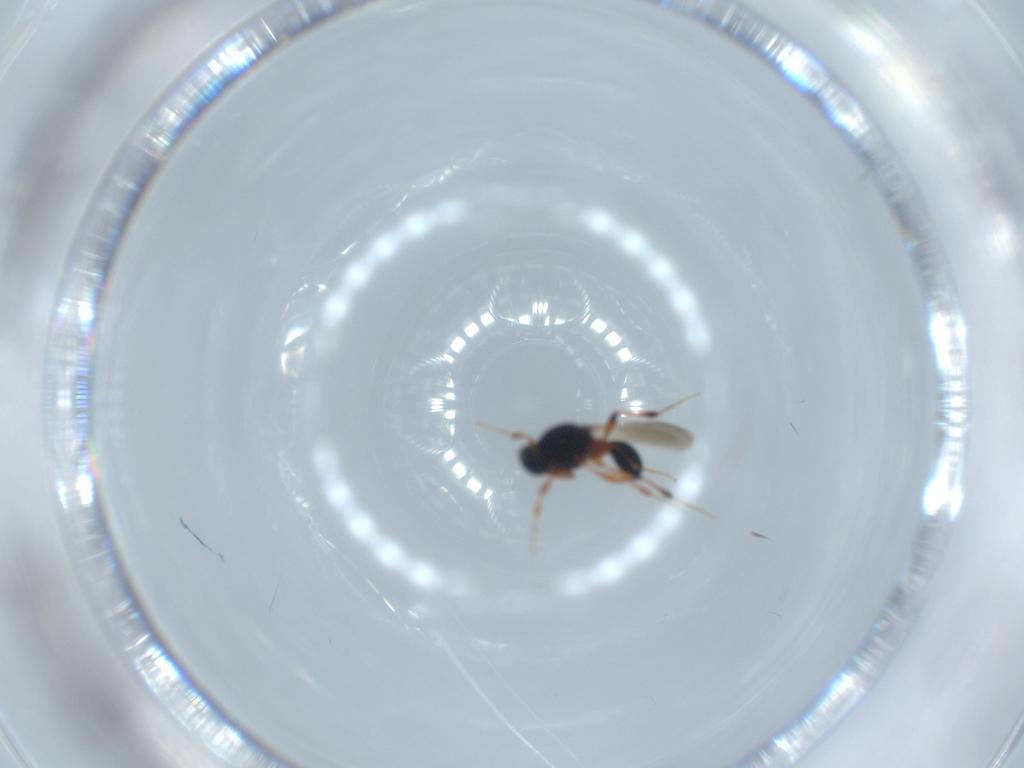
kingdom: Animalia
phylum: Arthropoda
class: Insecta
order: Hymenoptera
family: Platygastridae
